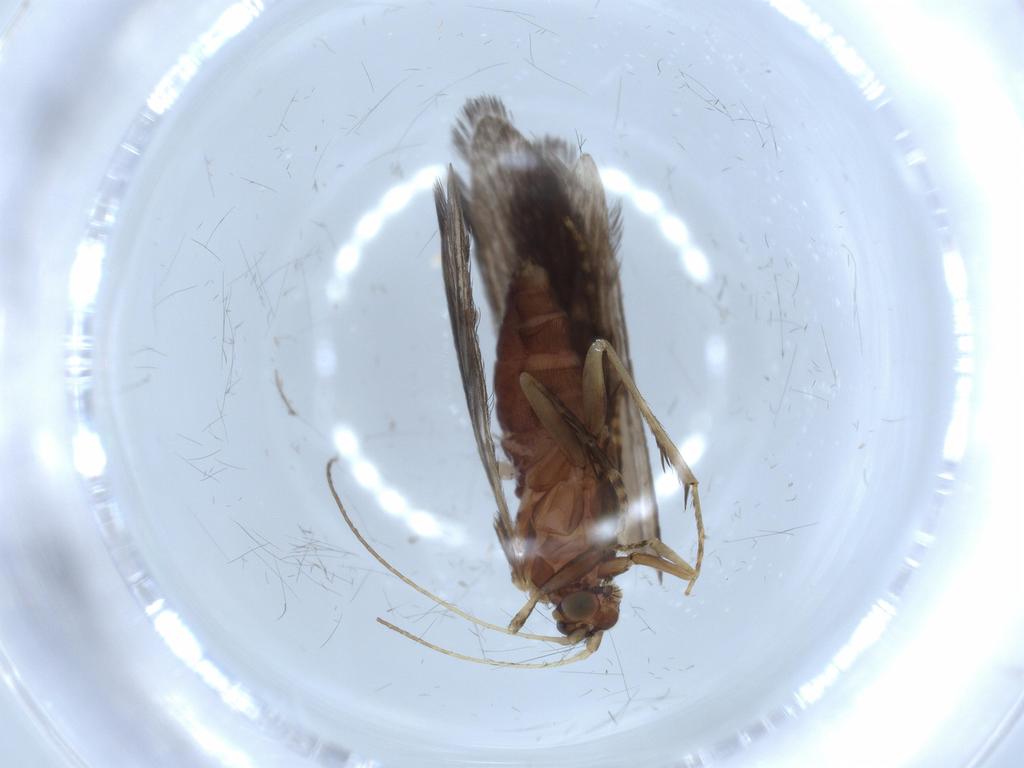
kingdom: Animalia
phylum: Arthropoda
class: Insecta
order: Trichoptera
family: Glossosomatidae
